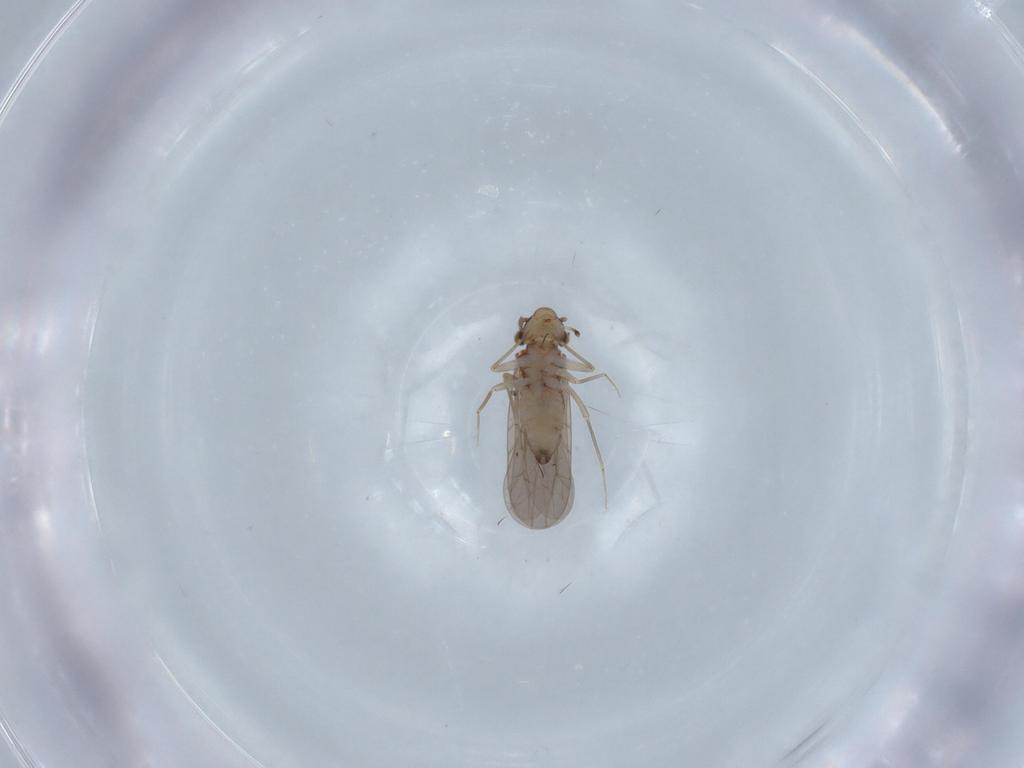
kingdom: Animalia
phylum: Arthropoda
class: Insecta
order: Psocodea
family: Lepidopsocidae
